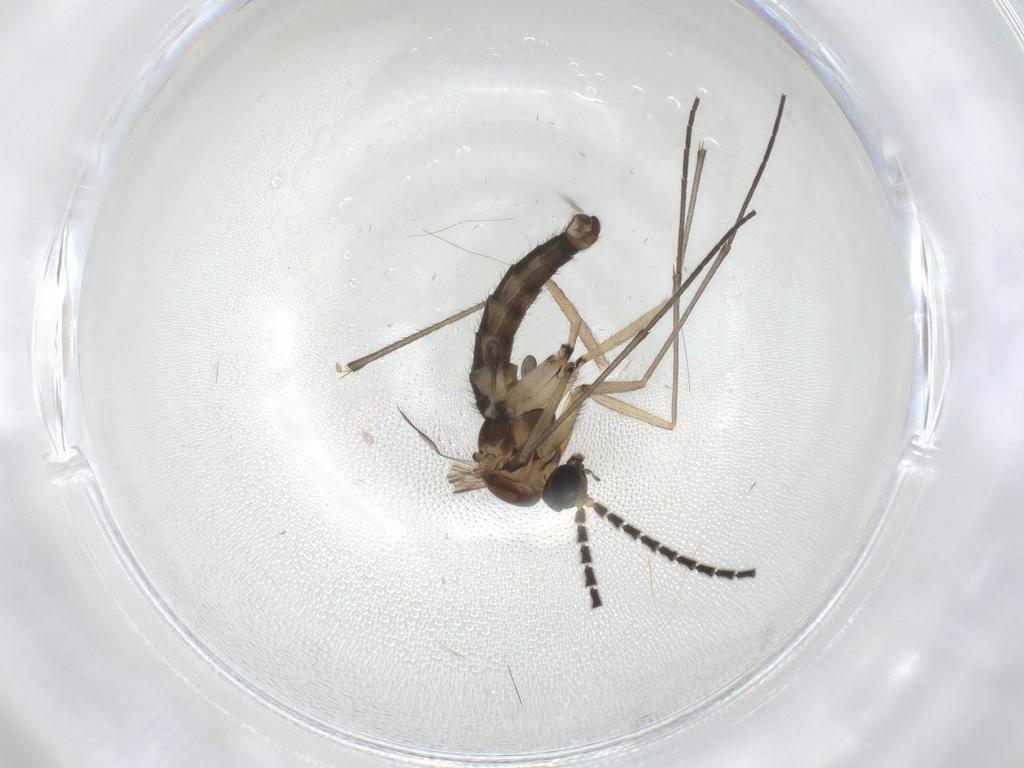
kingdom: Animalia
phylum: Arthropoda
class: Insecta
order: Diptera
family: Sciaridae
